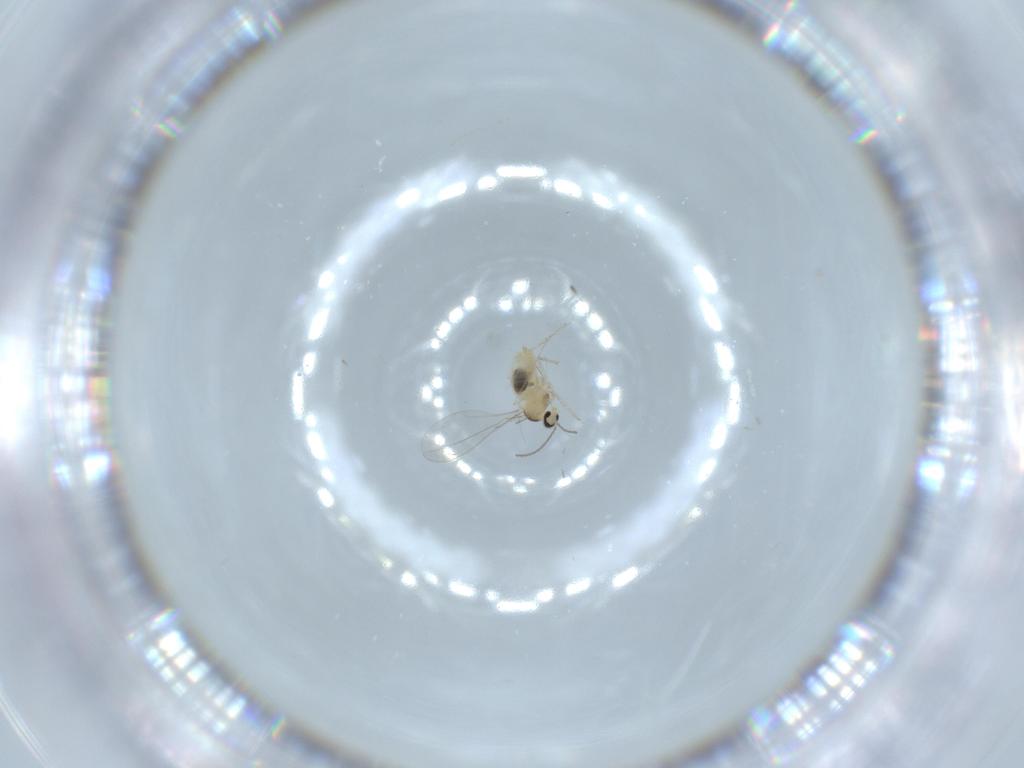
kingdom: Animalia
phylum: Arthropoda
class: Insecta
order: Diptera
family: Cecidomyiidae
